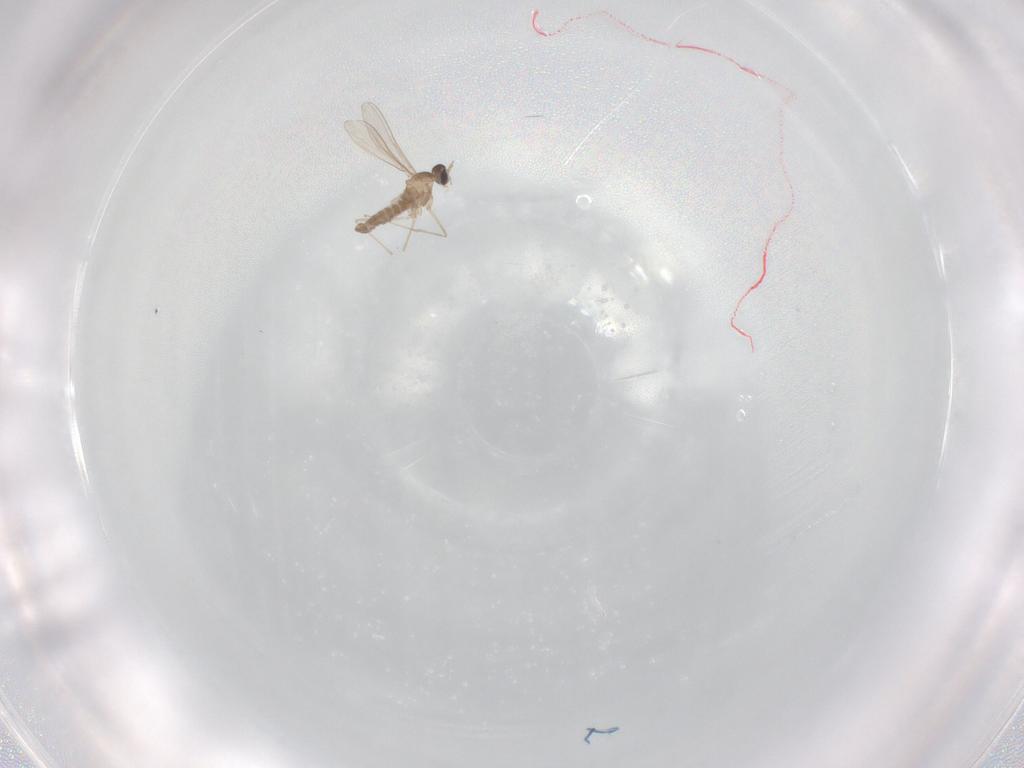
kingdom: Animalia
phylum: Arthropoda
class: Insecta
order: Diptera
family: Cecidomyiidae
